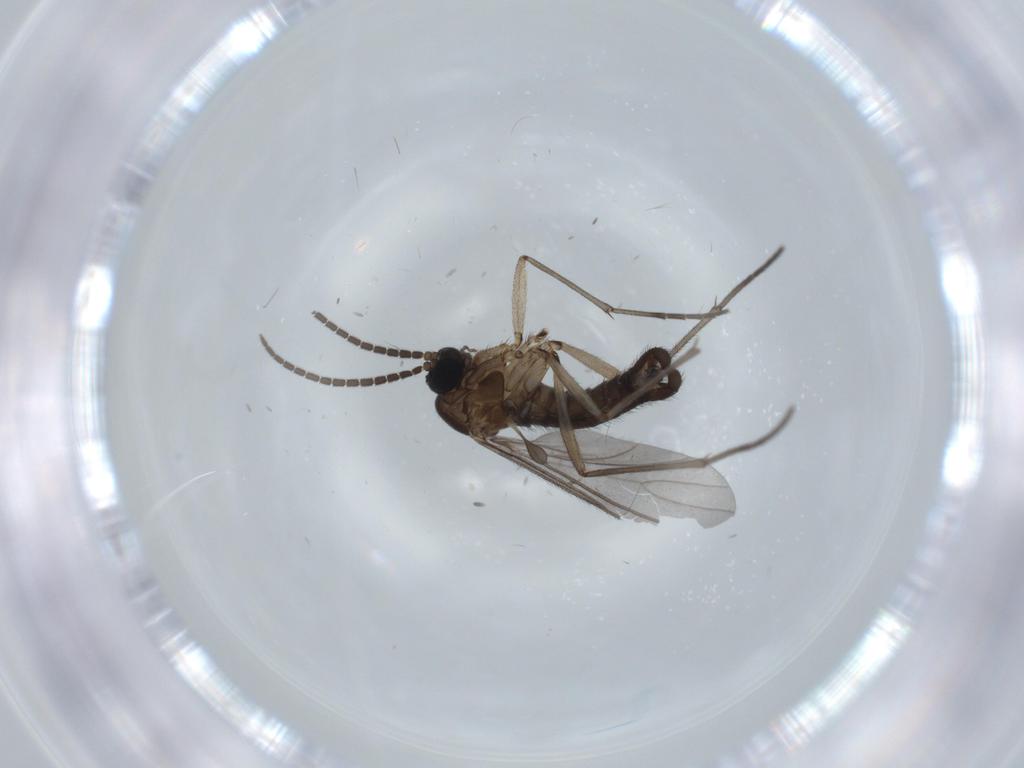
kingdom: Animalia
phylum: Arthropoda
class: Insecta
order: Diptera
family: Sciaridae
